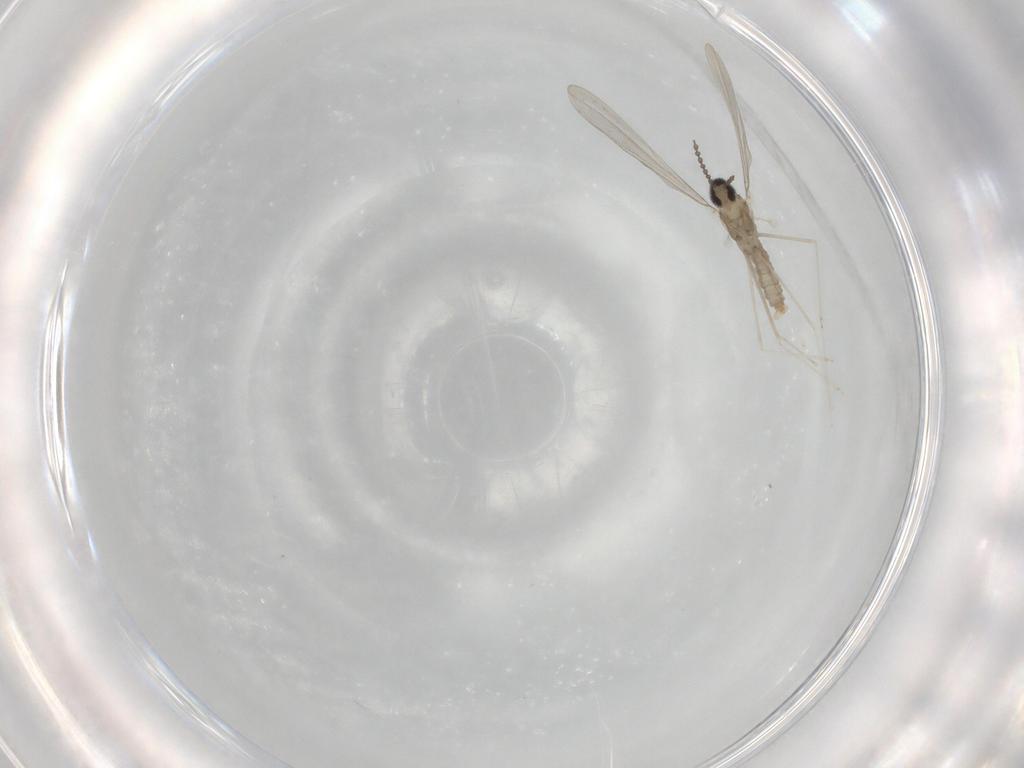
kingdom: Animalia
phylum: Arthropoda
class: Insecta
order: Diptera
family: Cecidomyiidae
